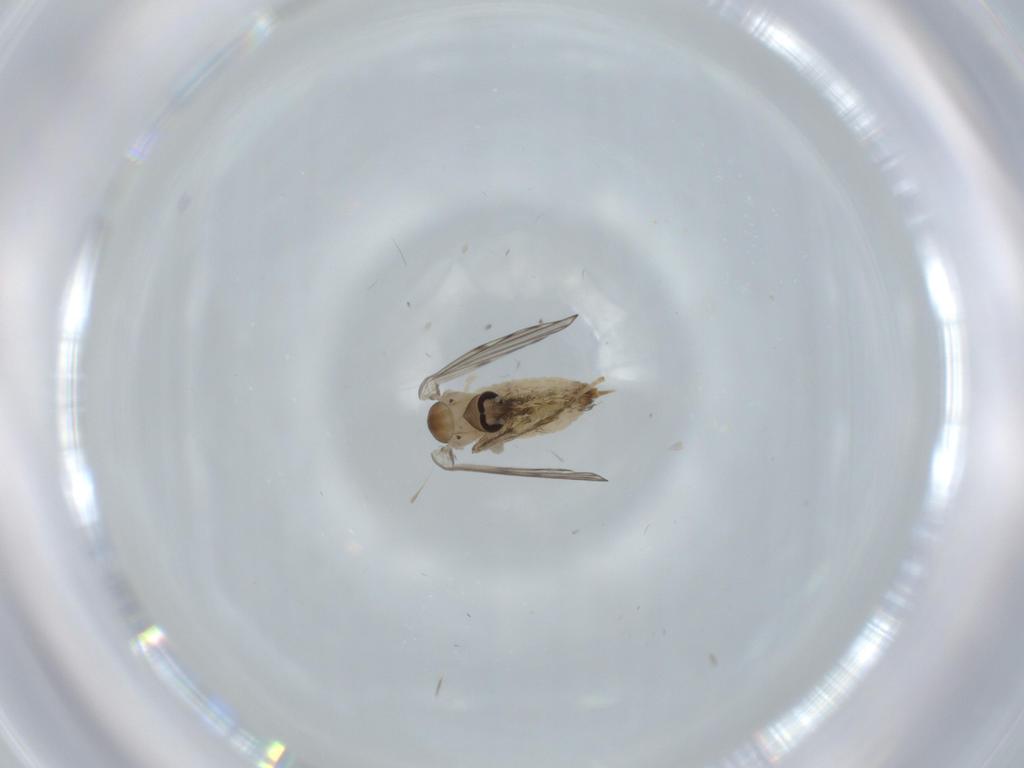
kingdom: Animalia
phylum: Arthropoda
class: Insecta
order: Diptera
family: Psychodidae
